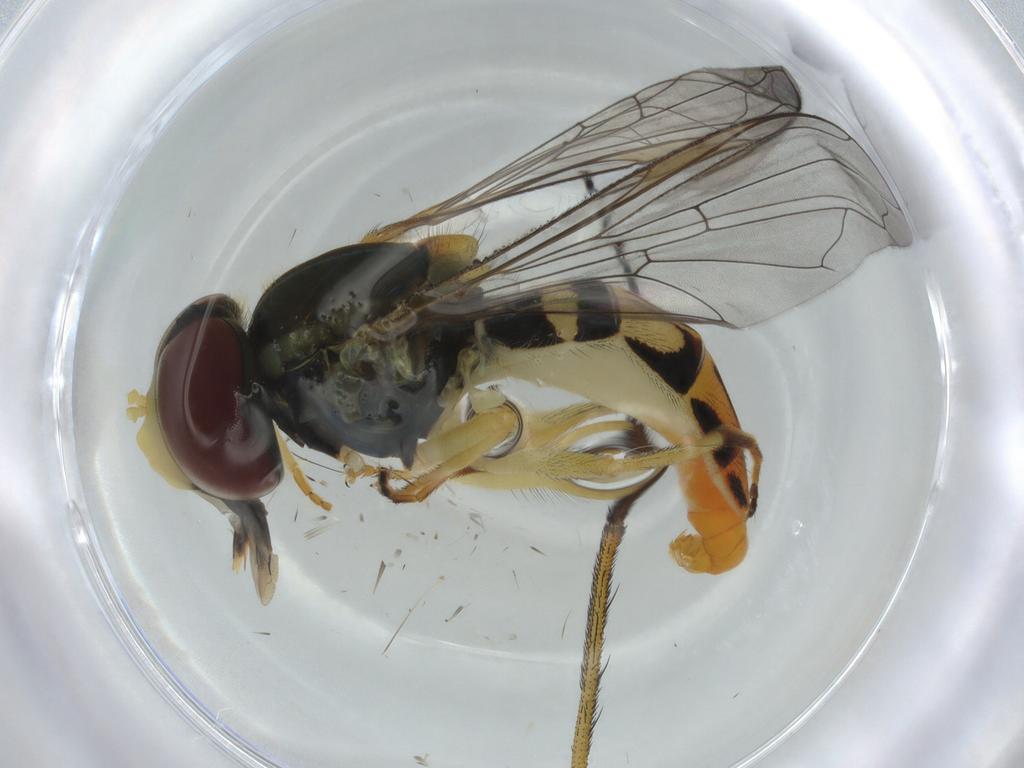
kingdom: Animalia
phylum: Arthropoda
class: Insecta
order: Diptera
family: Dolichopodidae
